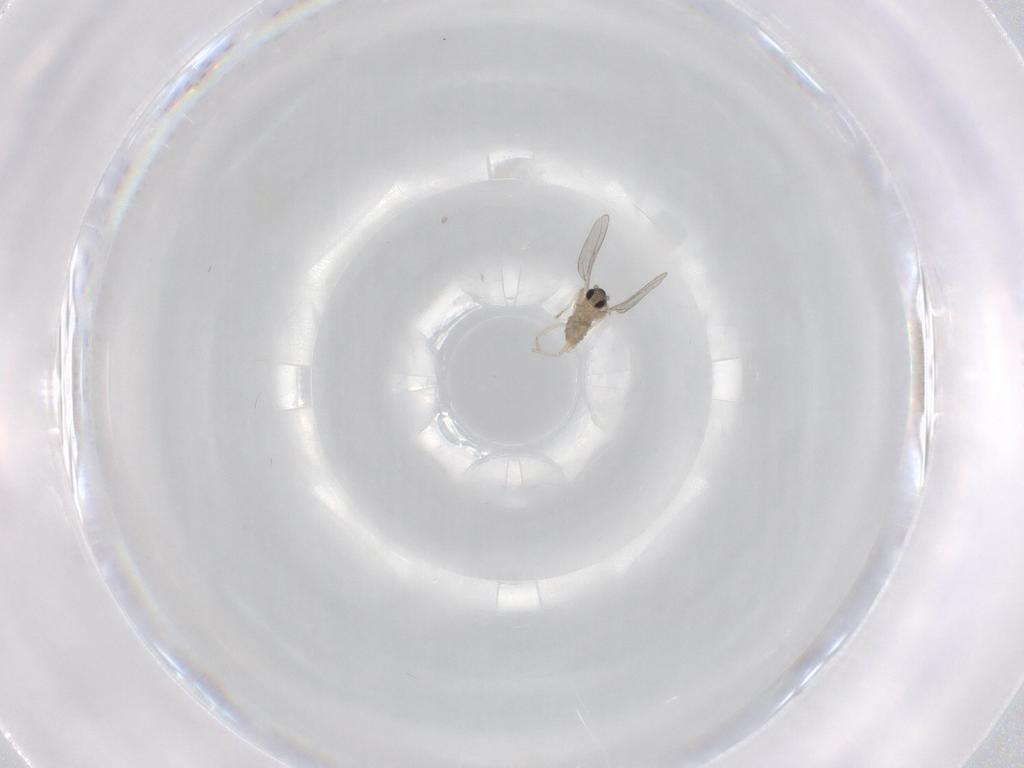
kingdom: Animalia
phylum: Arthropoda
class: Insecta
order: Diptera
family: Cecidomyiidae
